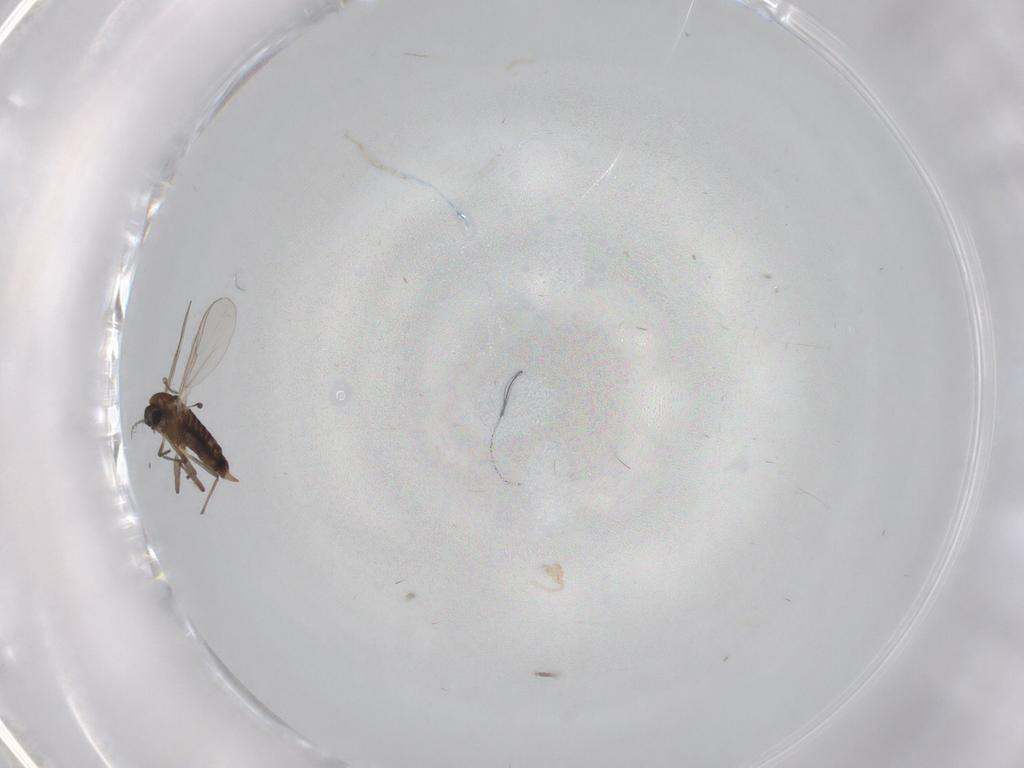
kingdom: Animalia
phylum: Arthropoda
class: Insecta
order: Diptera
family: Chironomidae
